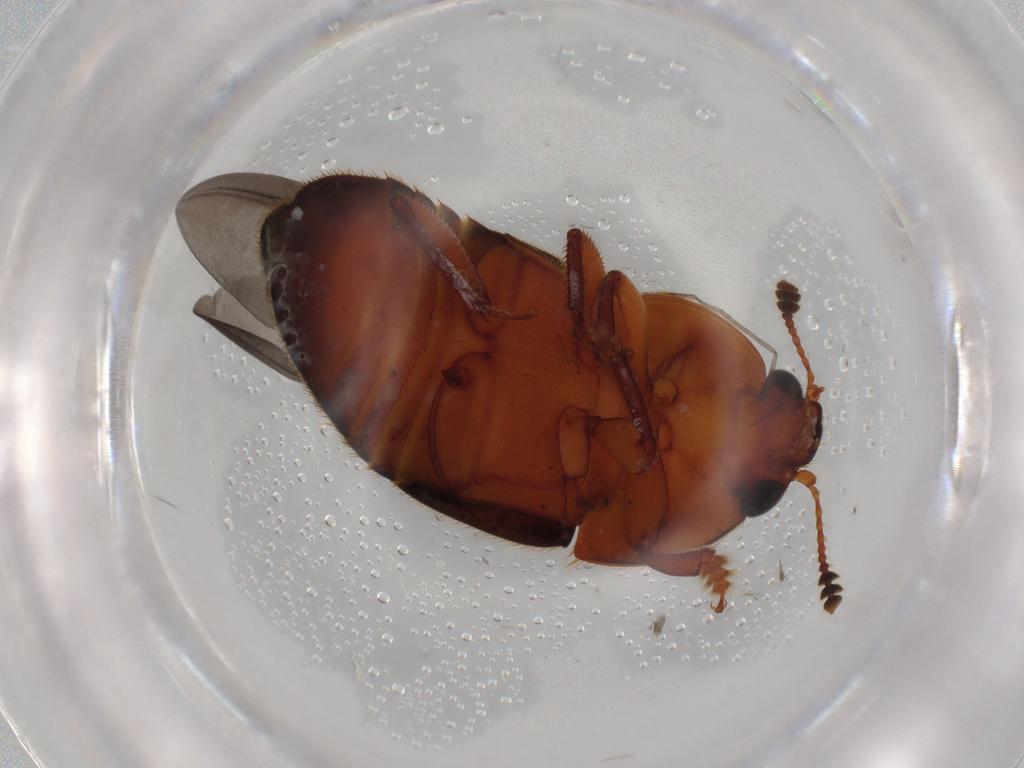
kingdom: Animalia
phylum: Arthropoda
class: Insecta
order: Coleoptera
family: Nitidulidae
